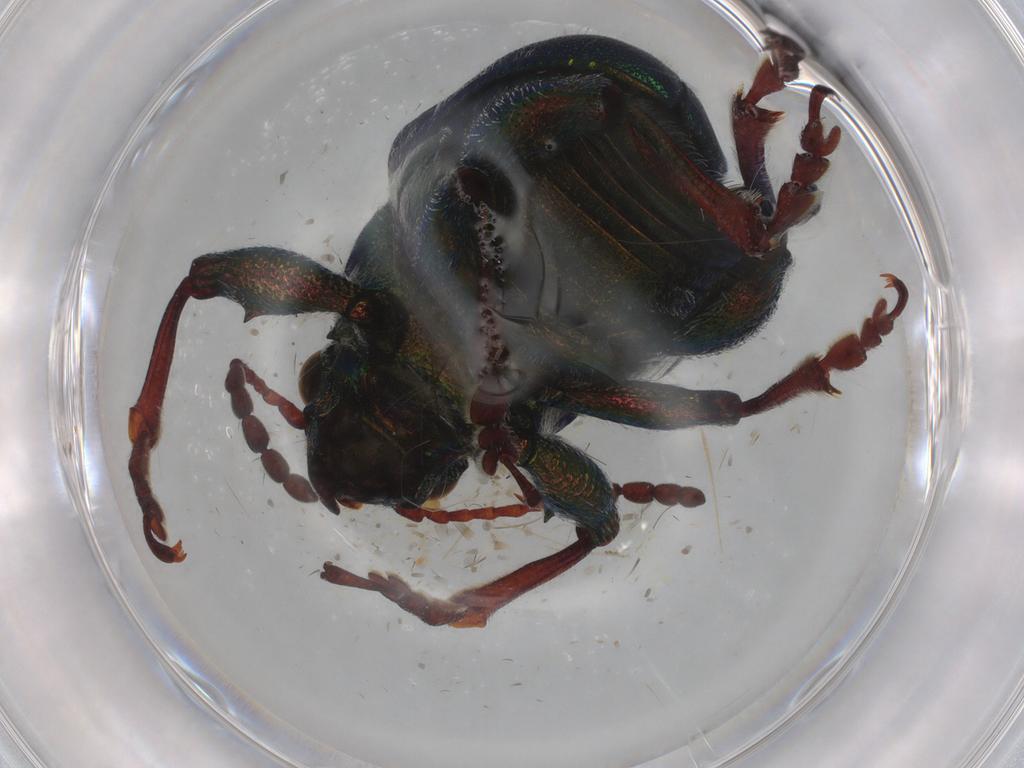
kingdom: Animalia
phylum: Arthropoda
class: Insecta
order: Coleoptera
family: Chrysomelidae
